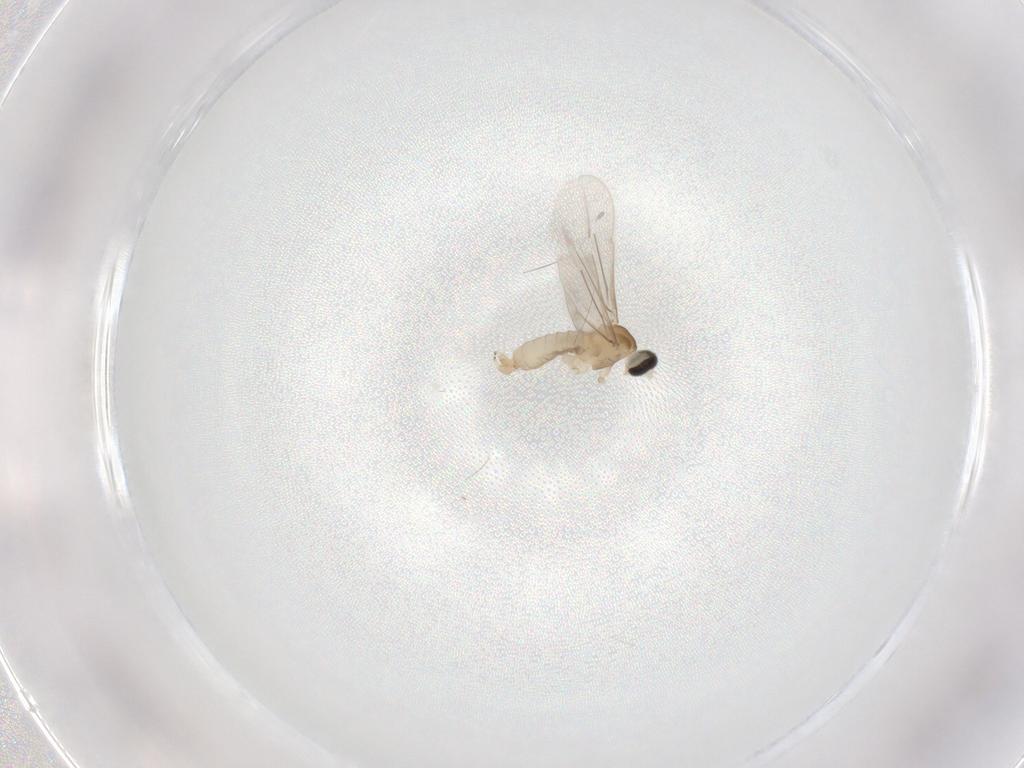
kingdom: Animalia
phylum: Arthropoda
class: Insecta
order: Diptera
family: Cecidomyiidae
